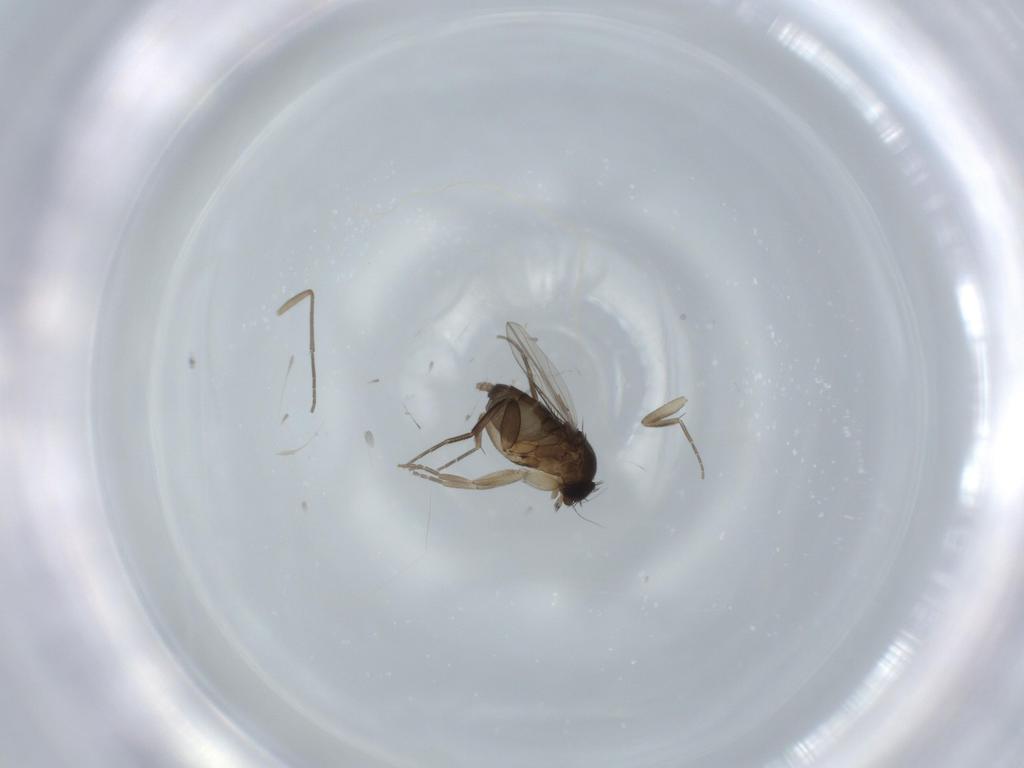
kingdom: Animalia
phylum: Arthropoda
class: Insecta
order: Diptera
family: Phoridae
